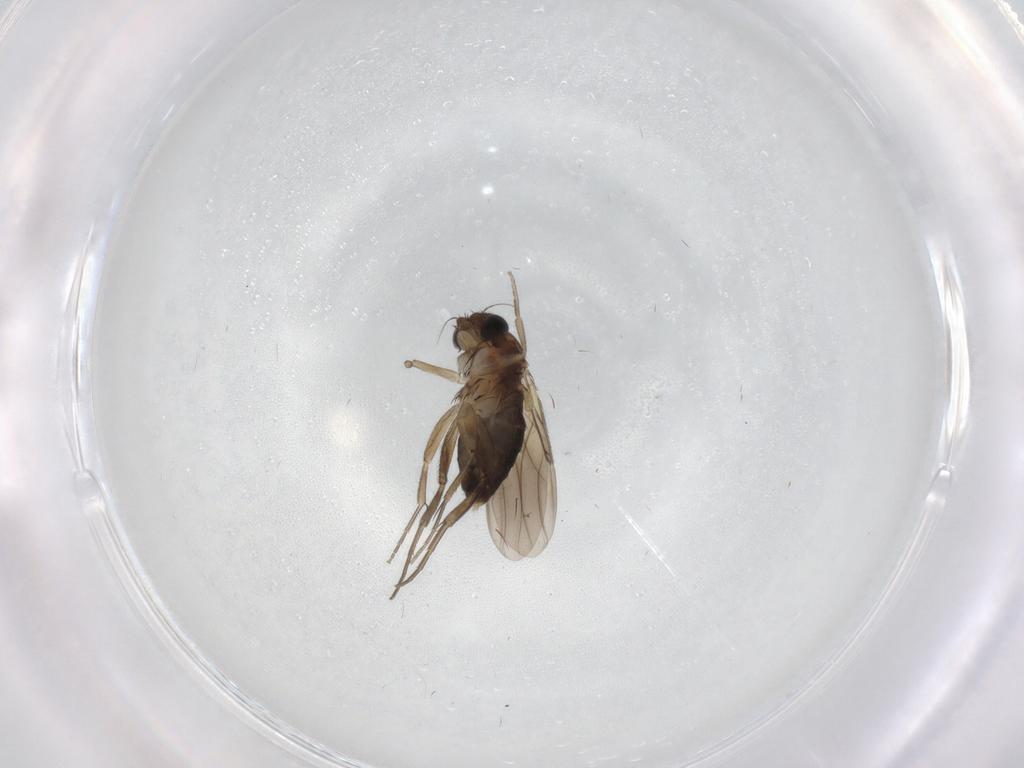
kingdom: Animalia
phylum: Arthropoda
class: Insecta
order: Diptera
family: Phoridae
